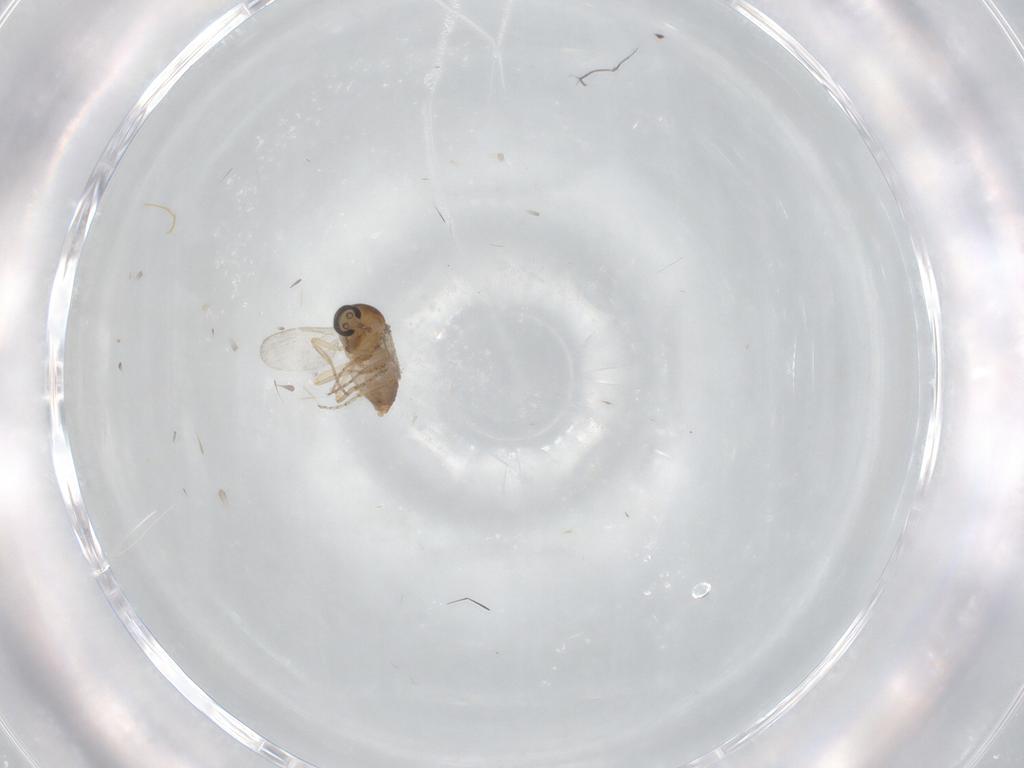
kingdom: Animalia
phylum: Arthropoda
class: Insecta
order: Diptera
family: Ceratopogonidae
